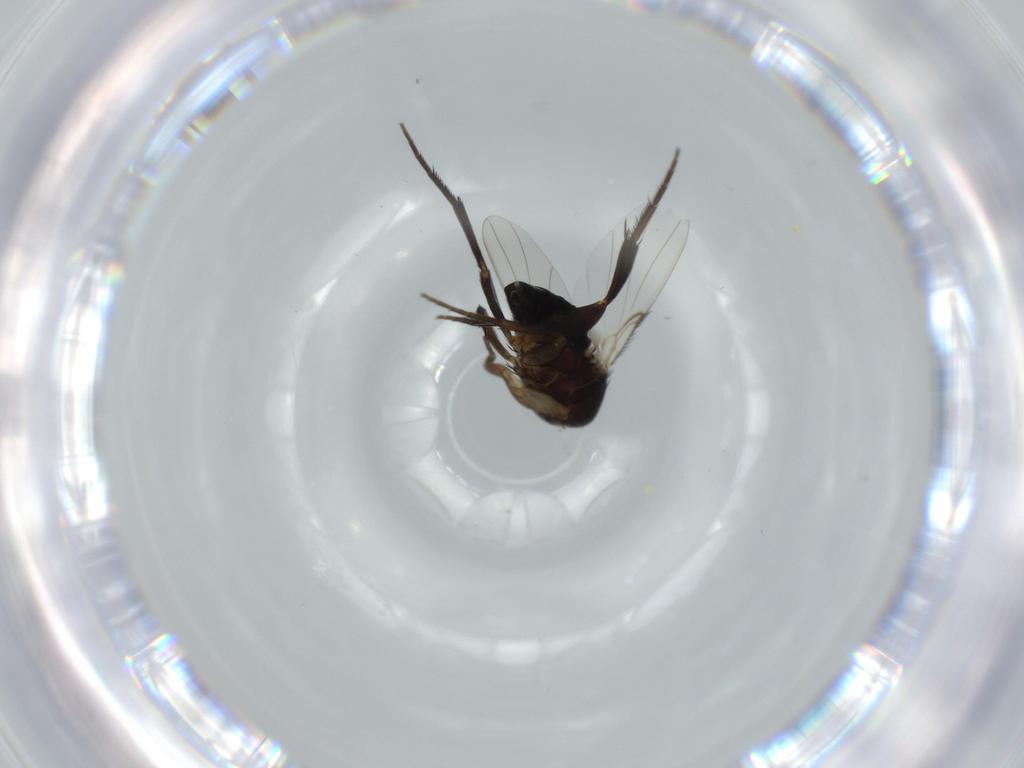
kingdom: Animalia
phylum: Arthropoda
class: Insecta
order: Diptera
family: Phoridae
